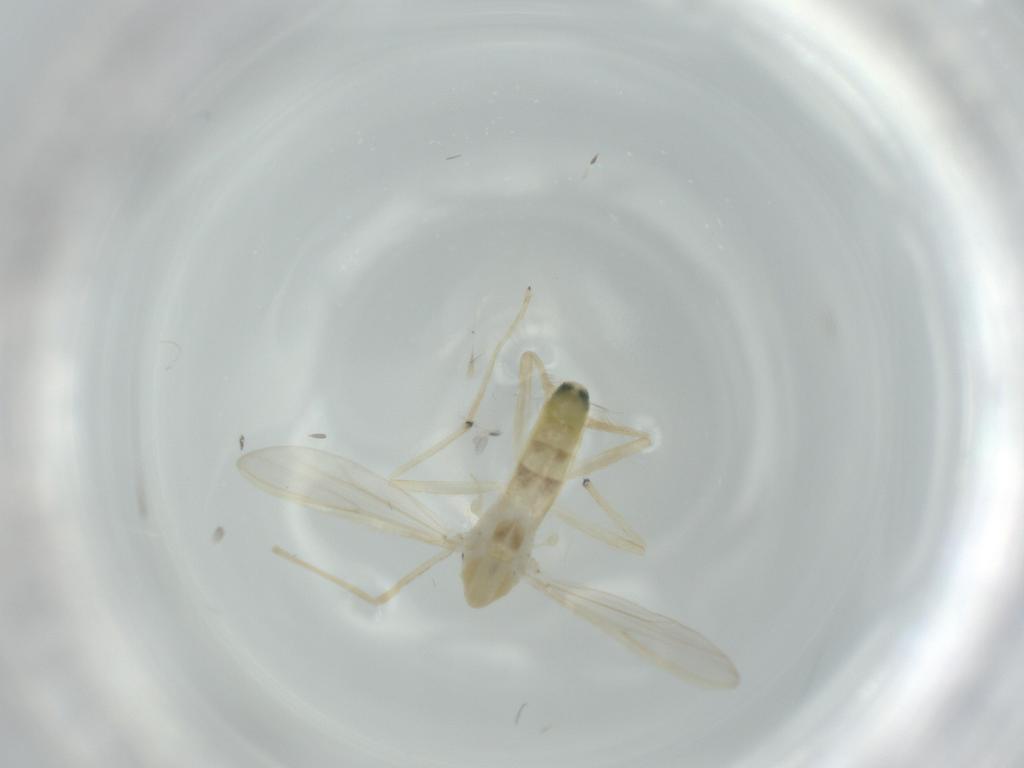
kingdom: Animalia
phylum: Arthropoda
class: Insecta
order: Diptera
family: Chironomidae
